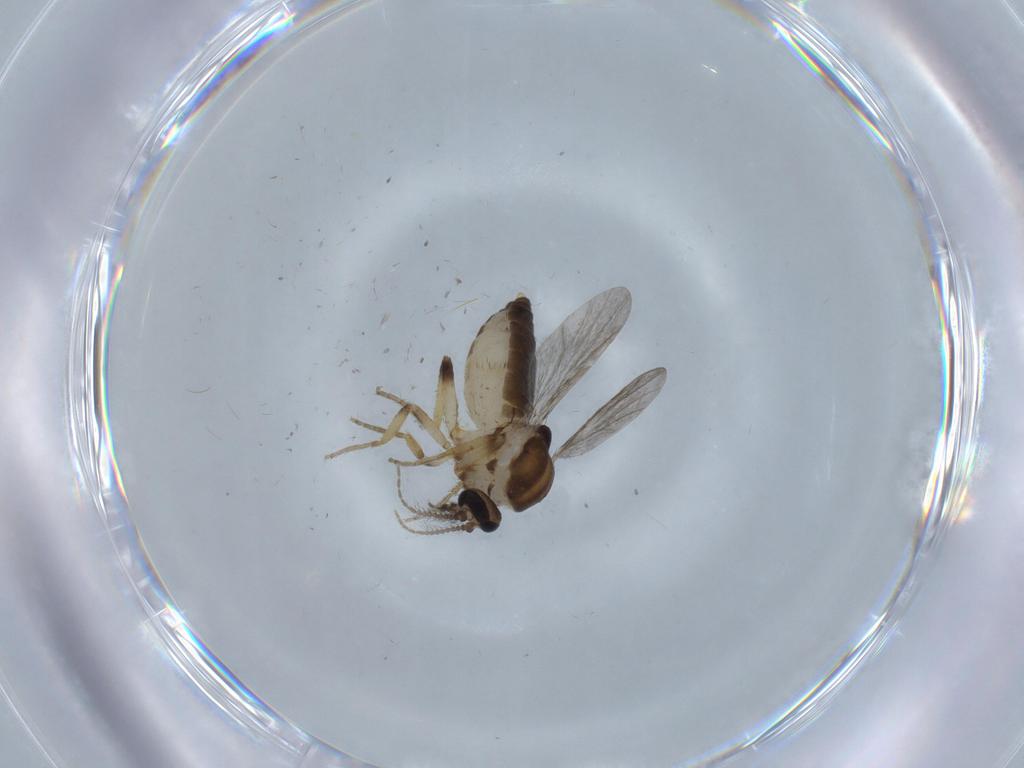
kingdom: Animalia
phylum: Arthropoda
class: Insecta
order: Diptera
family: Ceratopogonidae
